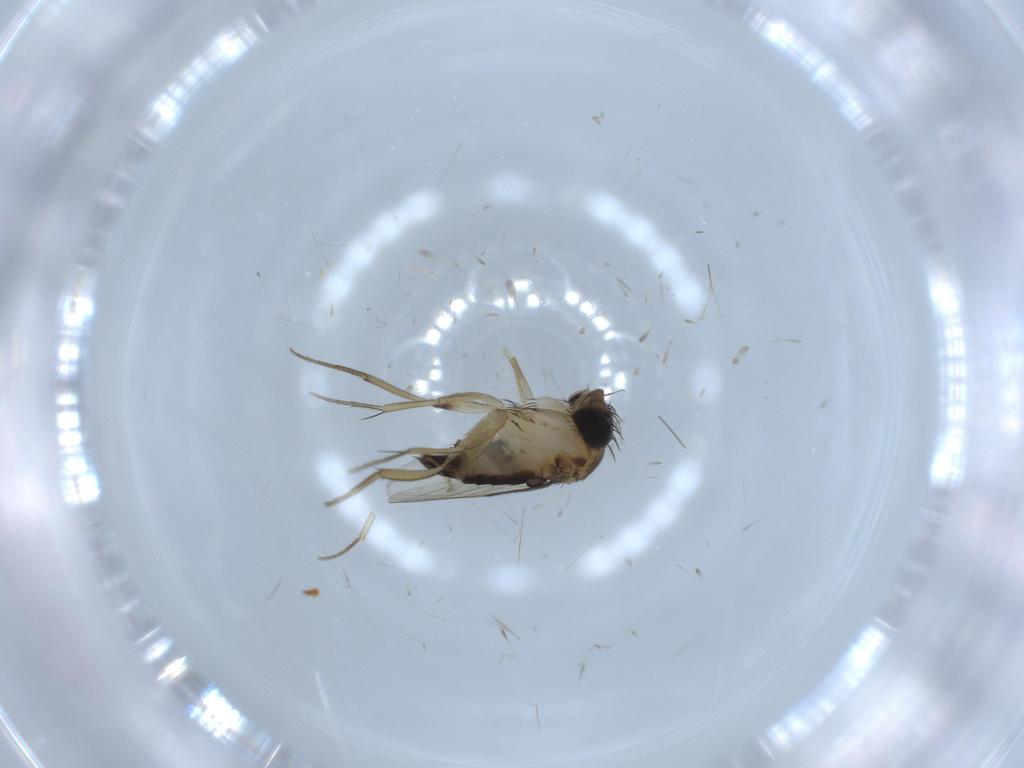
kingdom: Animalia
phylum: Arthropoda
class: Insecta
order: Diptera
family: Phoridae
